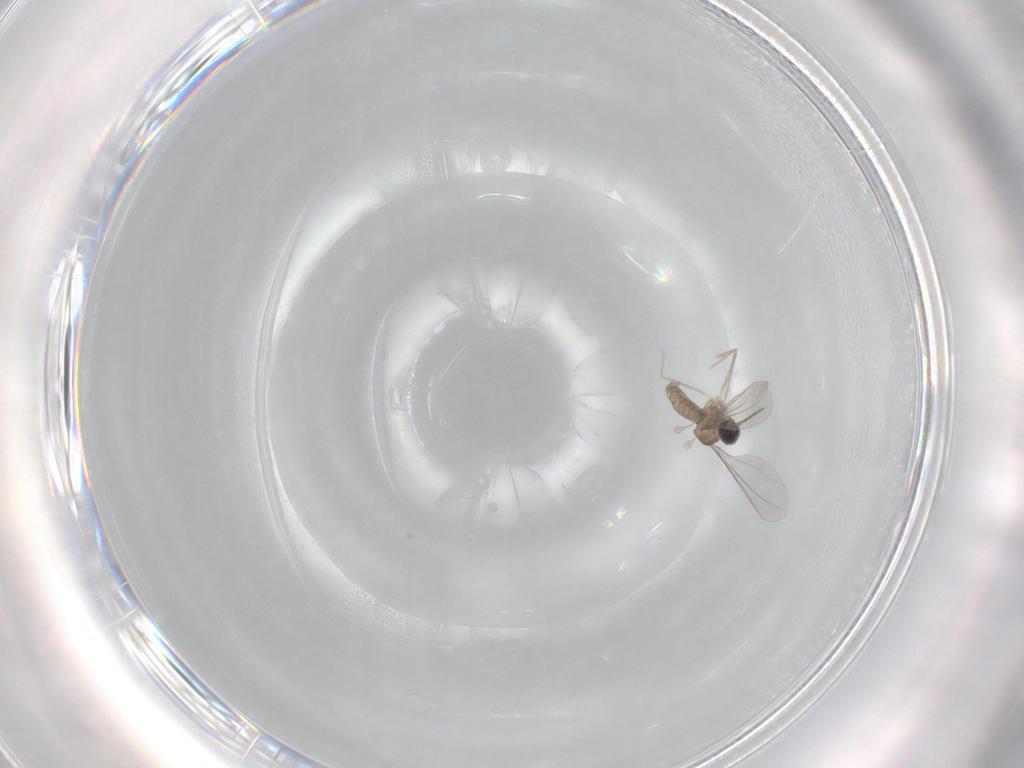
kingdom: Animalia
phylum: Arthropoda
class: Insecta
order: Diptera
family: Cecidomyiidae
